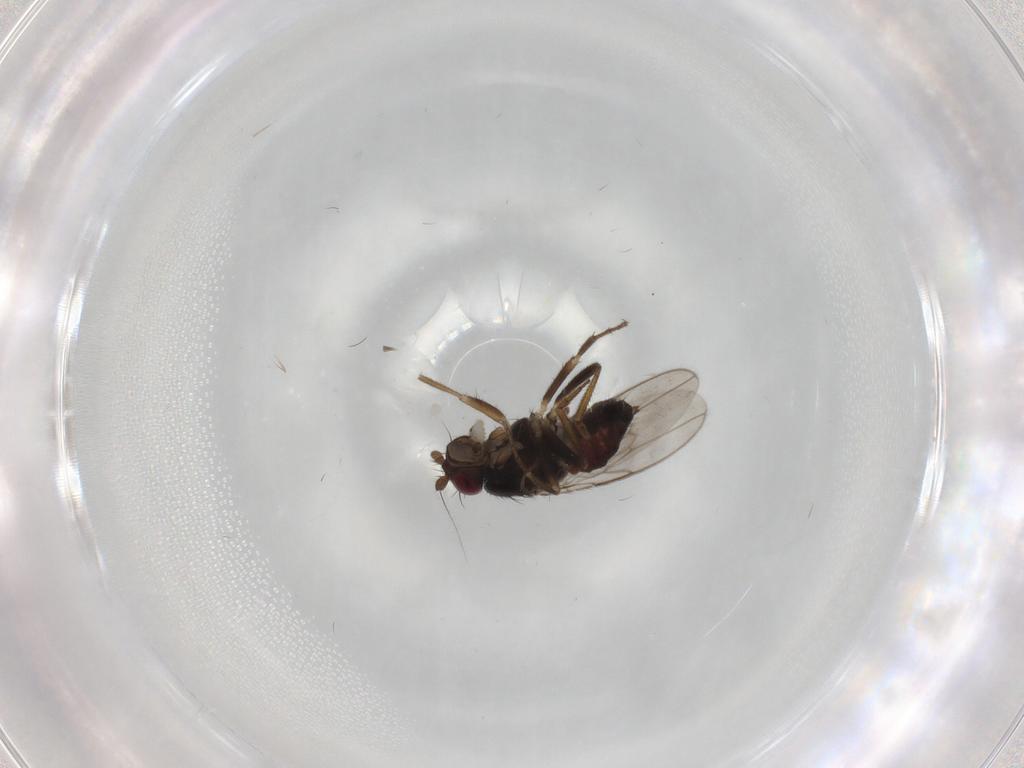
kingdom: Animalia
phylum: Arthropoda
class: Insecta
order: Diptera
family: Sphaeroceridae
